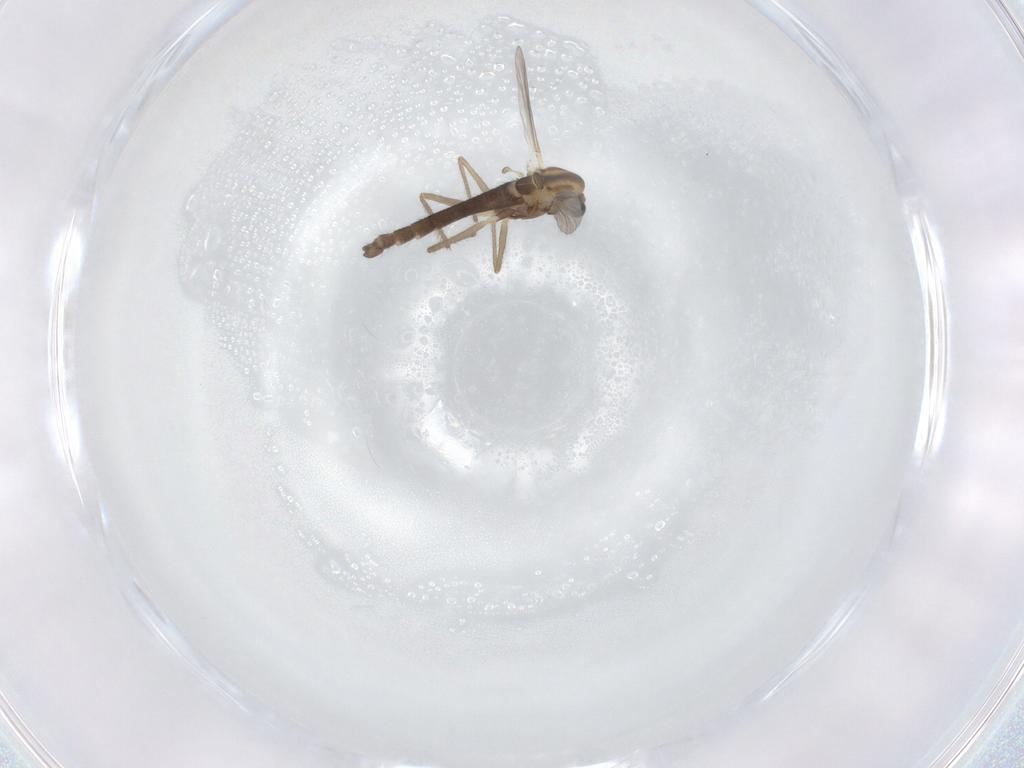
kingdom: Animalia
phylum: Arthropoda
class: Insecta
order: Diptera
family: Chironomidae
